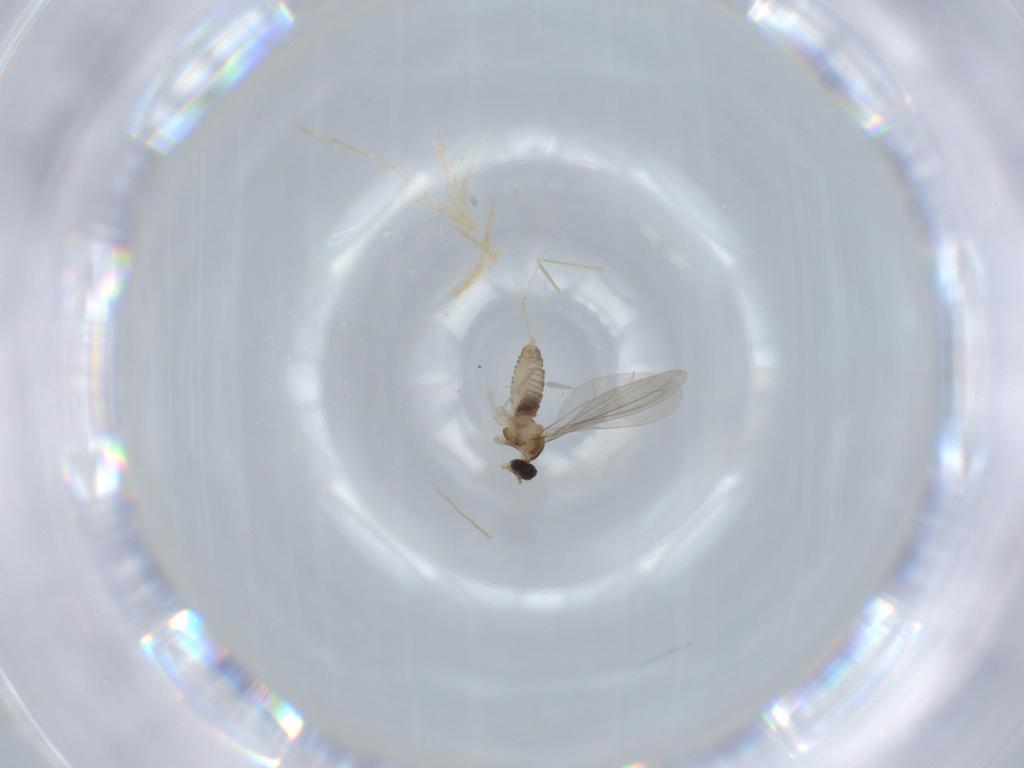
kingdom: Animalia
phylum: Arthropoda
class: Insecta
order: Diptera
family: Cecidomyiidae
